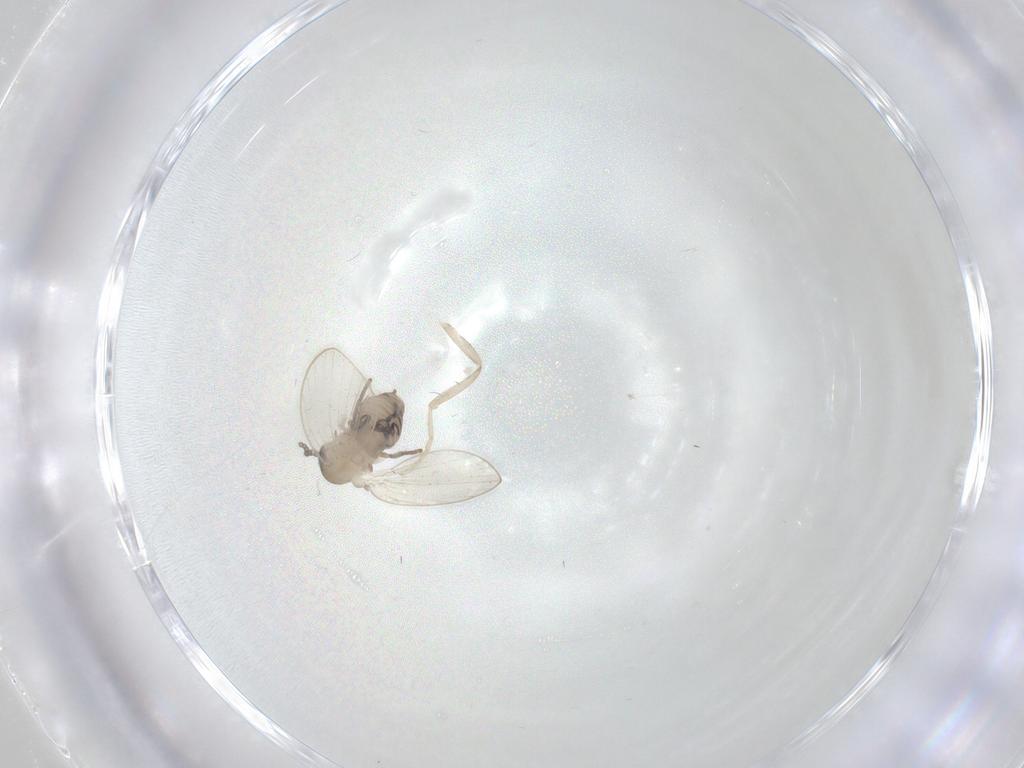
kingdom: Animalia
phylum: Arthropoda
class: Insecta
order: Diptera
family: Psychodidae
